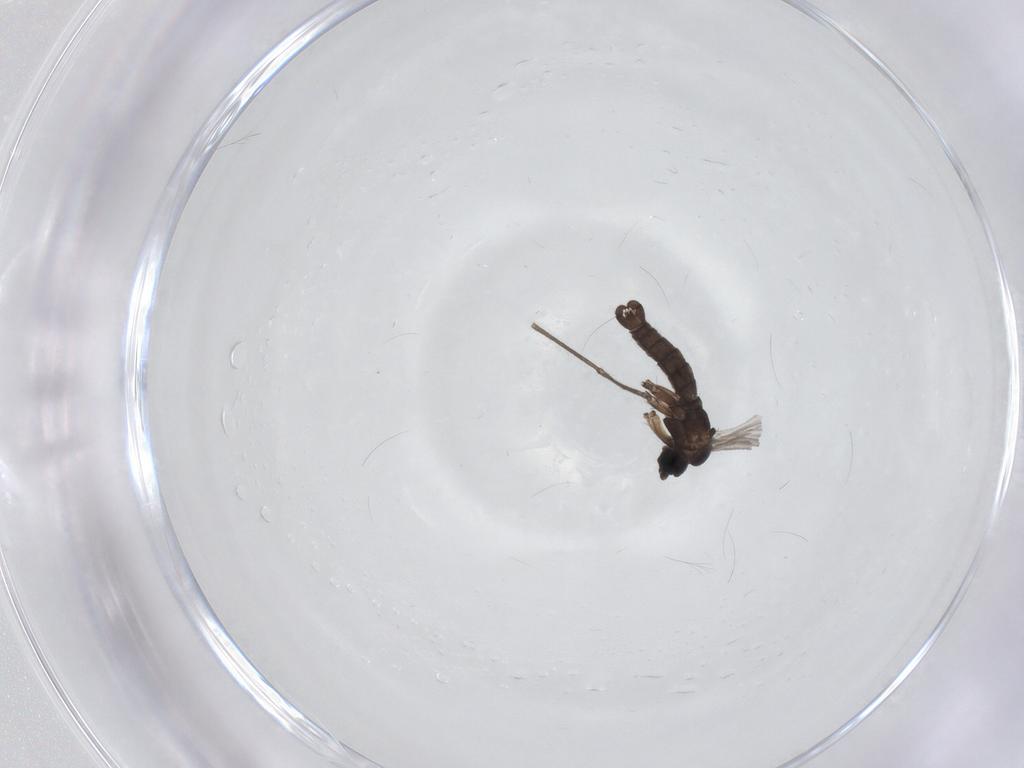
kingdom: Animalia
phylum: Arthropoda
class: Insecta
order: Diptera
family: Sciaridae
